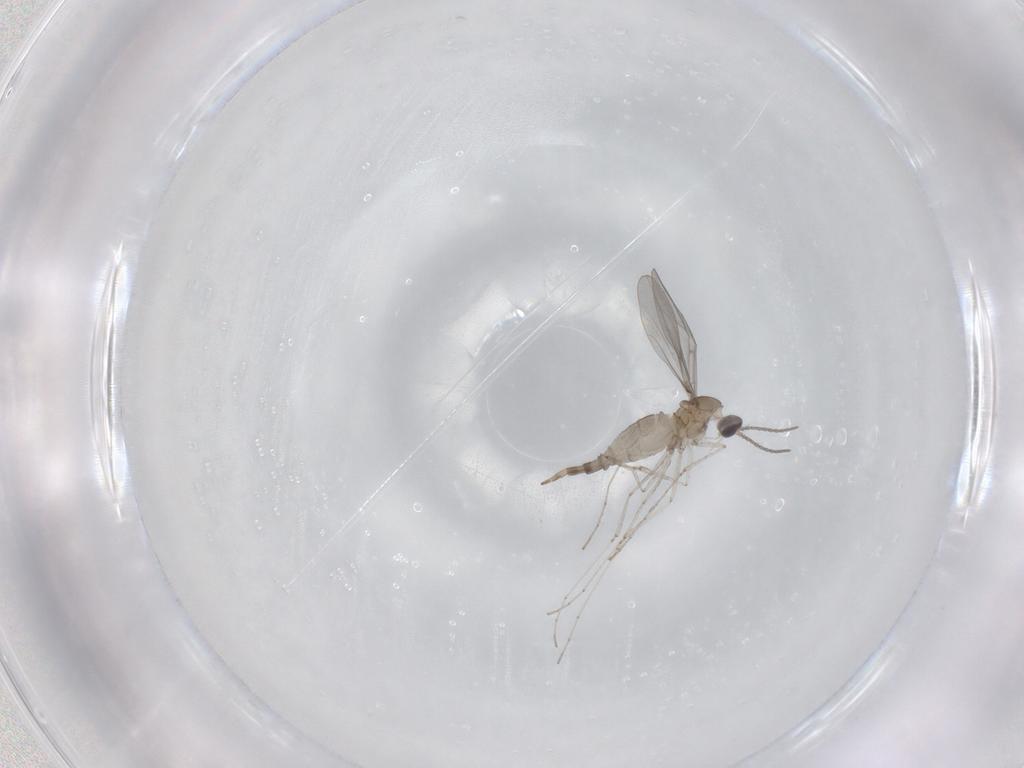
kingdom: Animalia
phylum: Arthropoda
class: Insecta
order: Diptera
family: Cecidomyiidae
